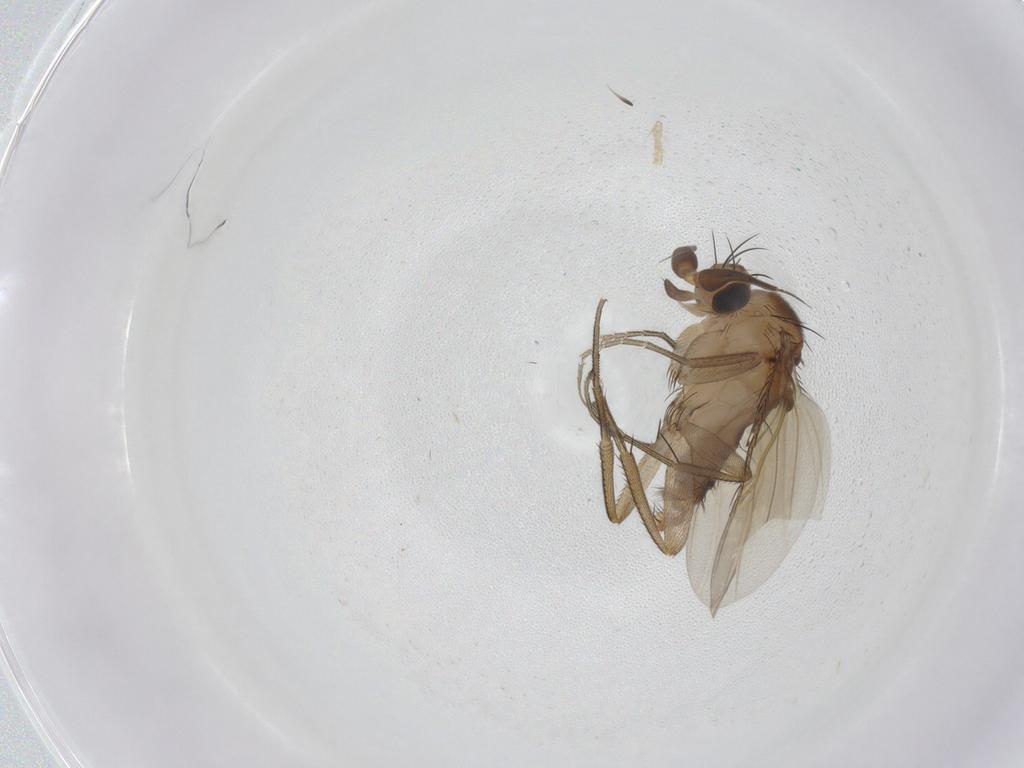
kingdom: Animalia
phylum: Arthropoda
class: Insecta
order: Diptera
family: Phoridae
